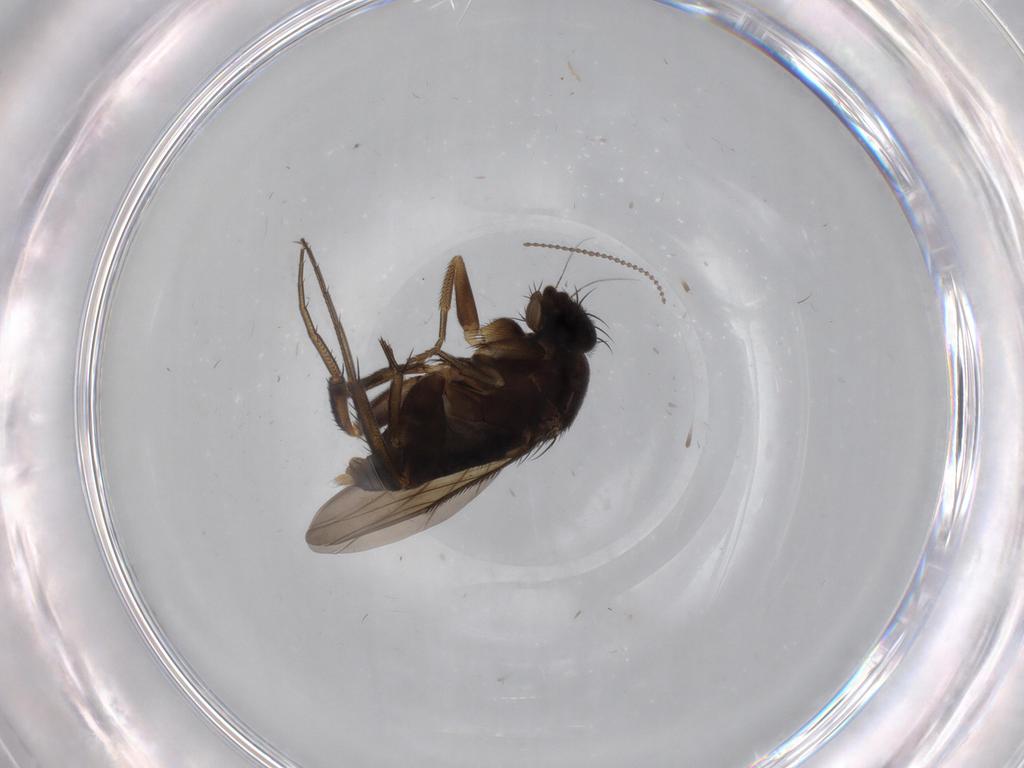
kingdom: Animalia
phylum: Arthropoda
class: Insecta
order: Diptera
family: Phoridae
